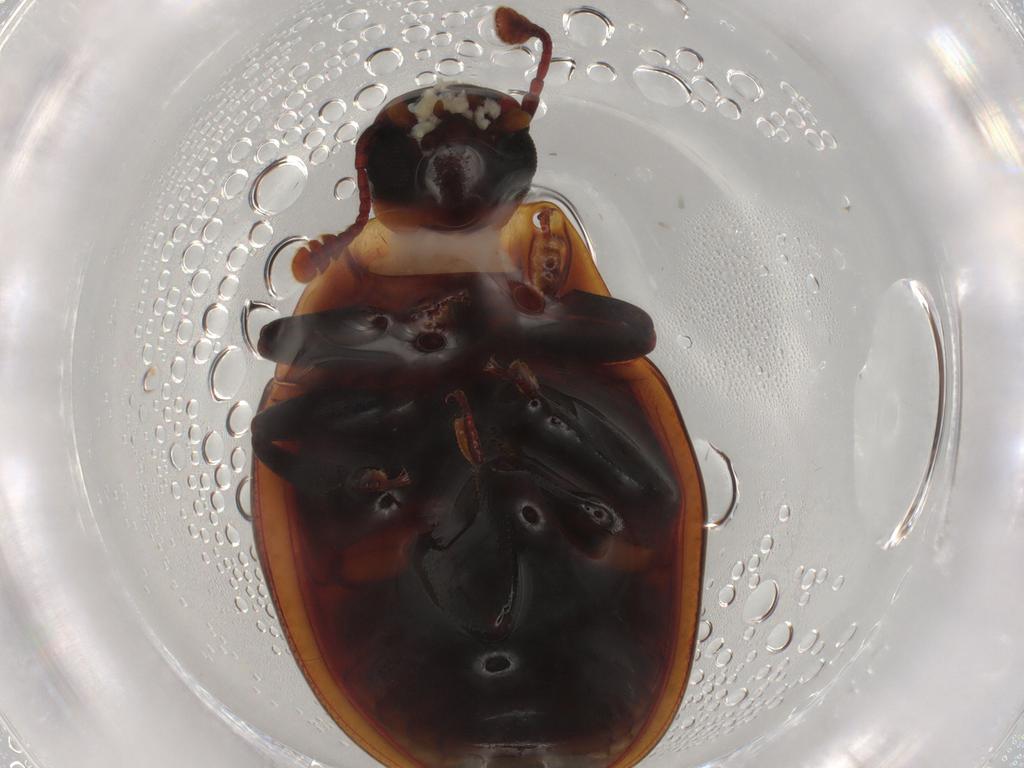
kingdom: Animalia
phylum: Arthropoda
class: Insecta
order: Coleoptera
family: Zopheridae
